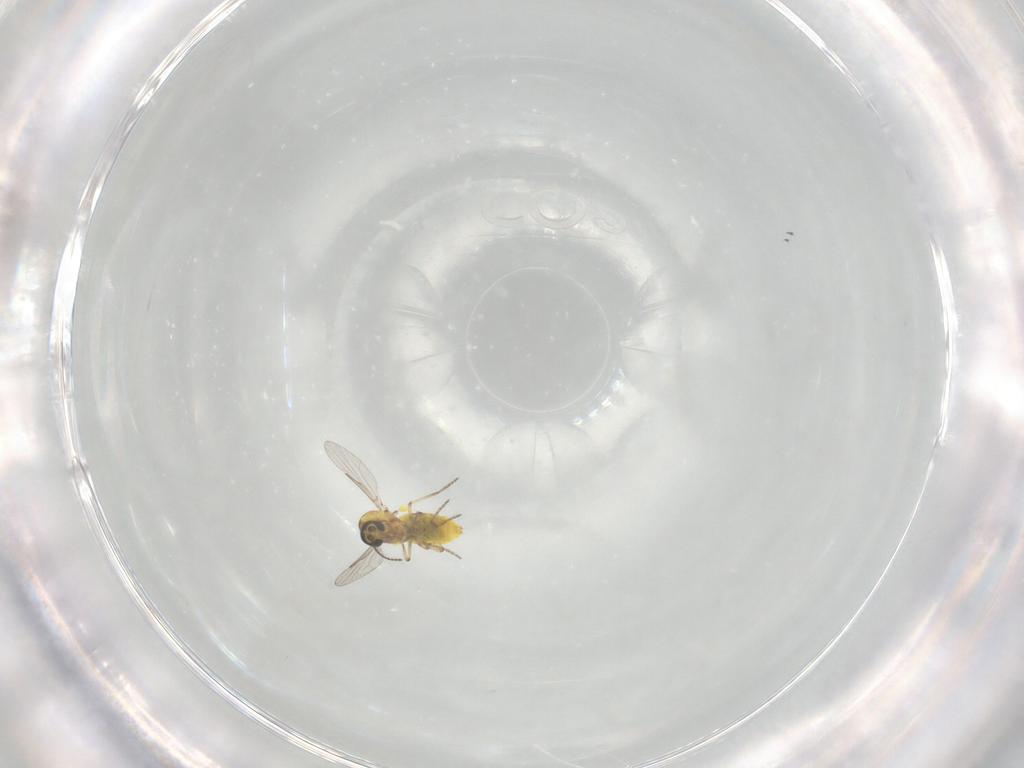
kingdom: Animalia
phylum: Arthropoda
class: Insecta
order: Diptera
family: Ceratopogonidae
